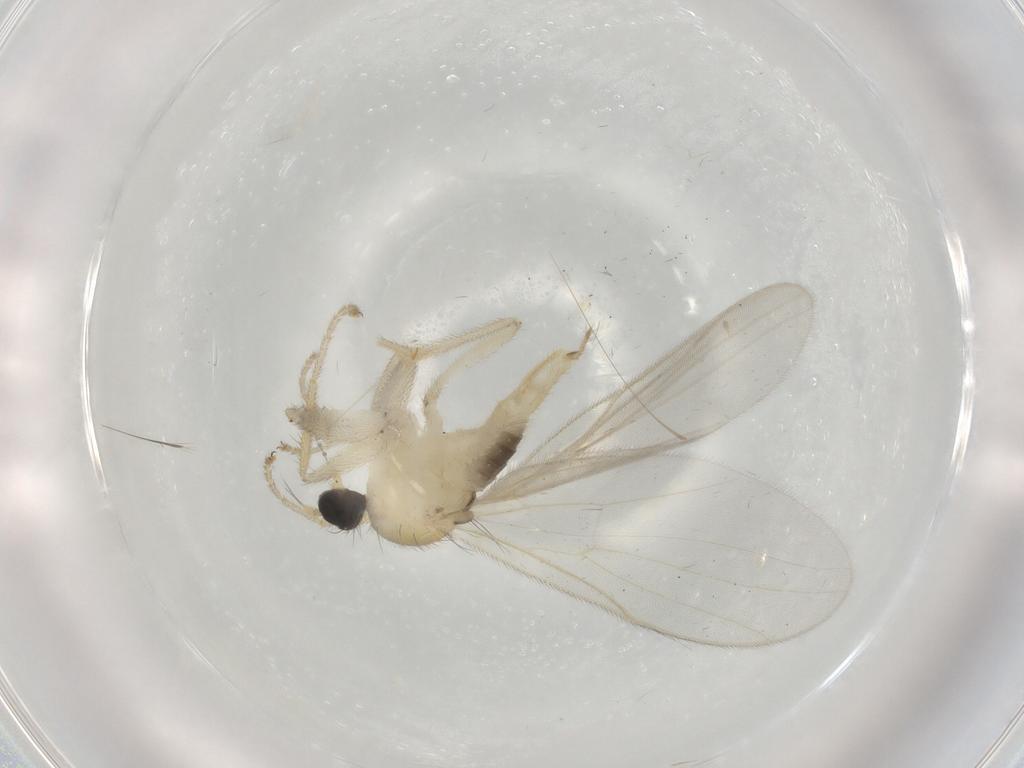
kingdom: Animalia
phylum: Arthropoda
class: Insecta
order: Diptera
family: Hybotidae
